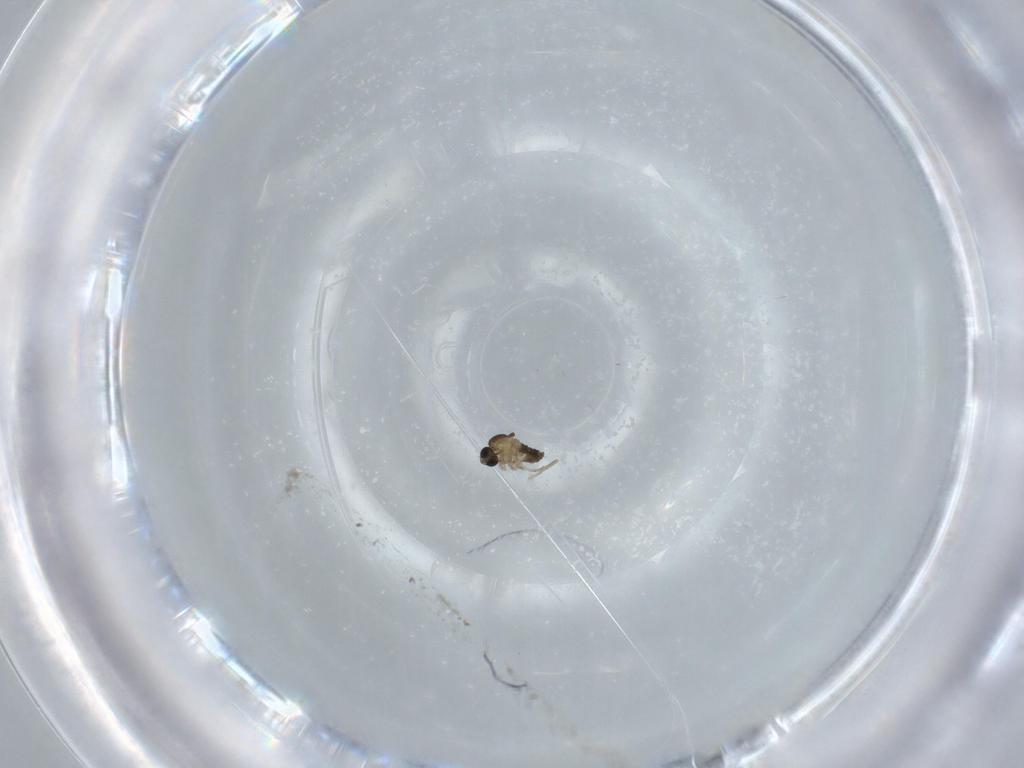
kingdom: Animalia
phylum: Arthropoda
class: Insecta
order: Diptera
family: Cecidomyiidae
